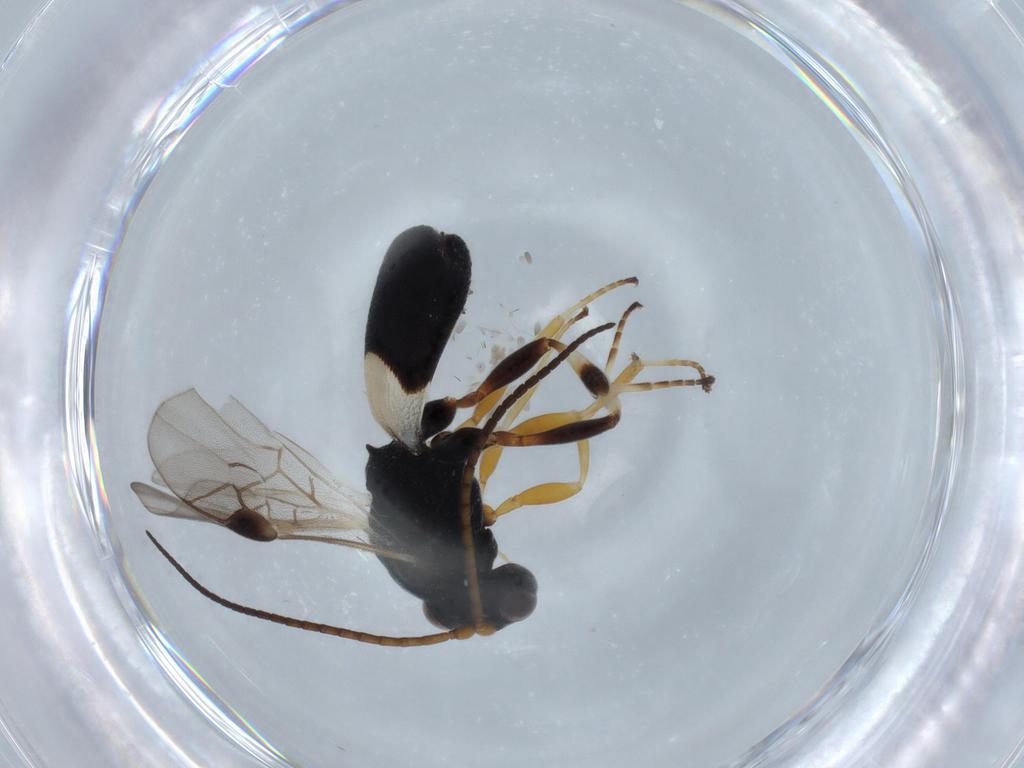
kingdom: Animalia
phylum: Arthropoda
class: Insecta
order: Hymenoptera
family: Braconidae
